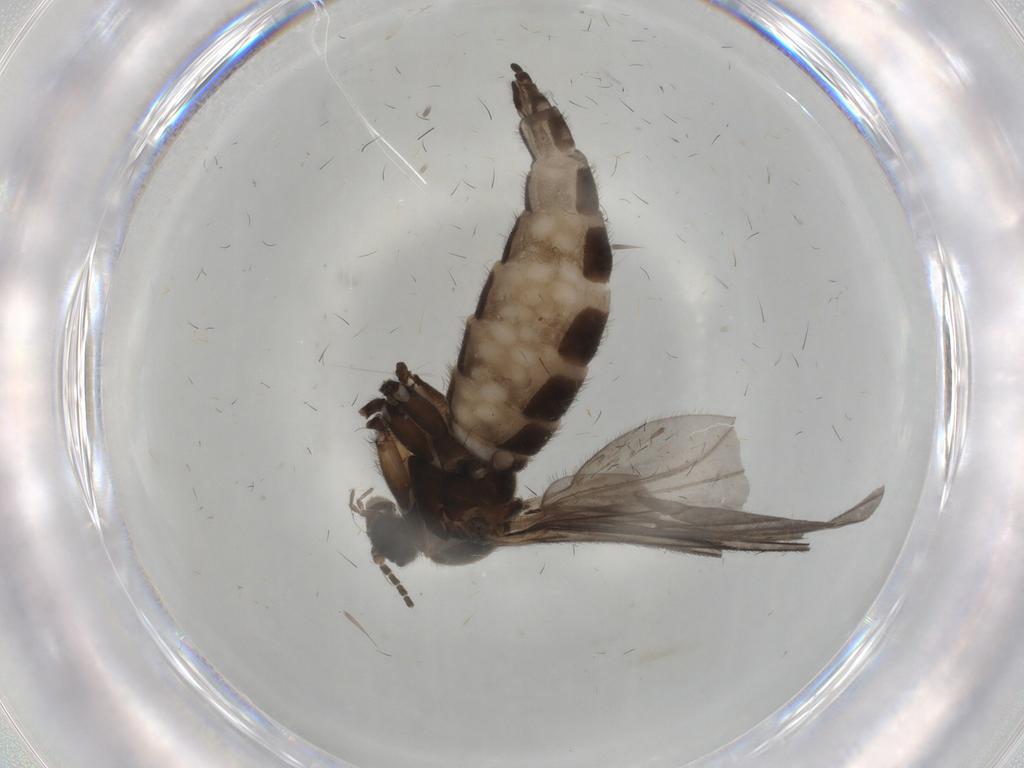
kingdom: Animalia
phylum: Arthropoda
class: Insecta
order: Diptera
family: Sciaridae
